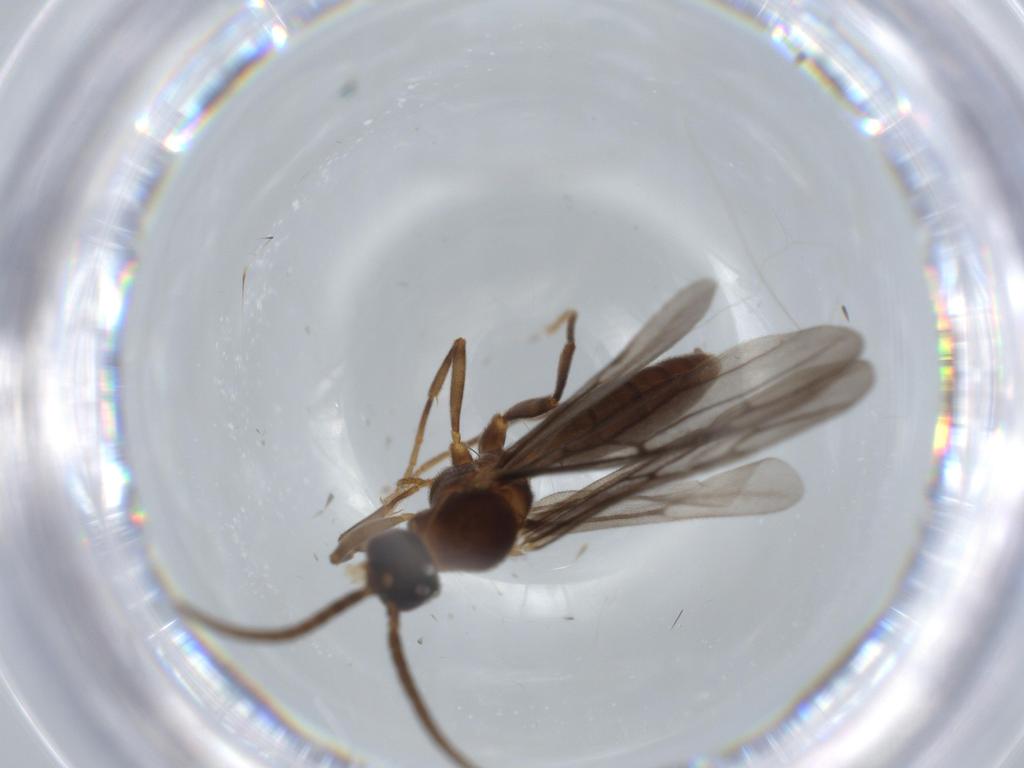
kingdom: Animalia
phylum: Arthropoda
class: Insecta
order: Hymenoptera
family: Formicidae
